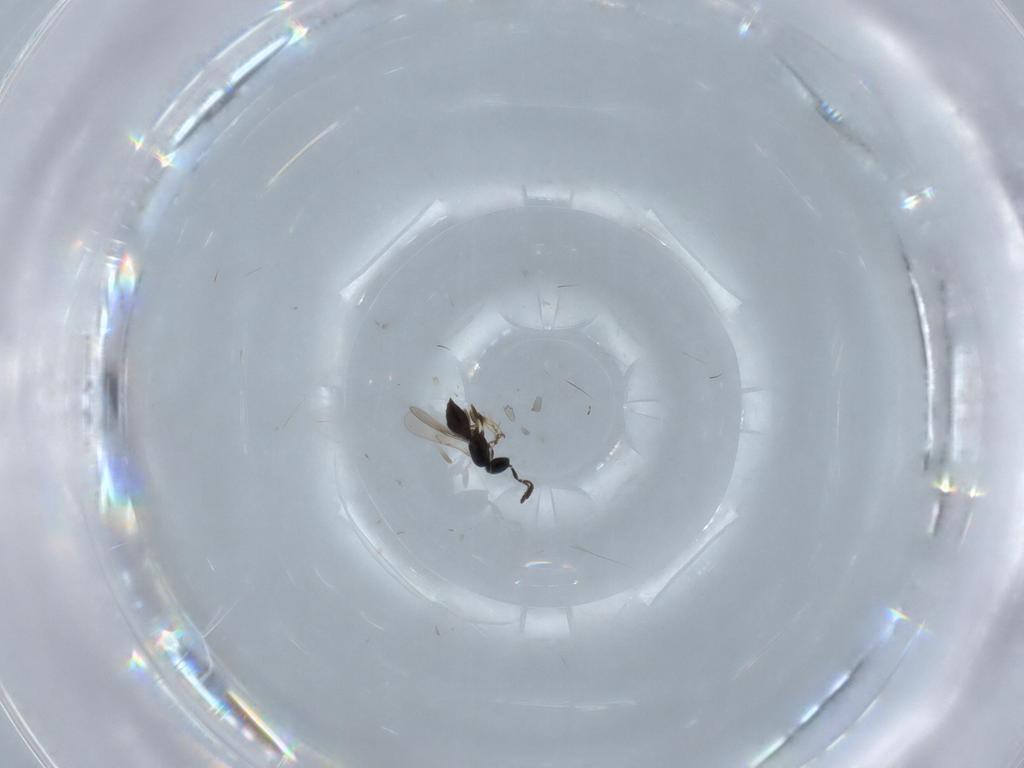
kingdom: Animalia
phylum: Arthropoda
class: Insecta
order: Hymenoptera
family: Scelionidae
